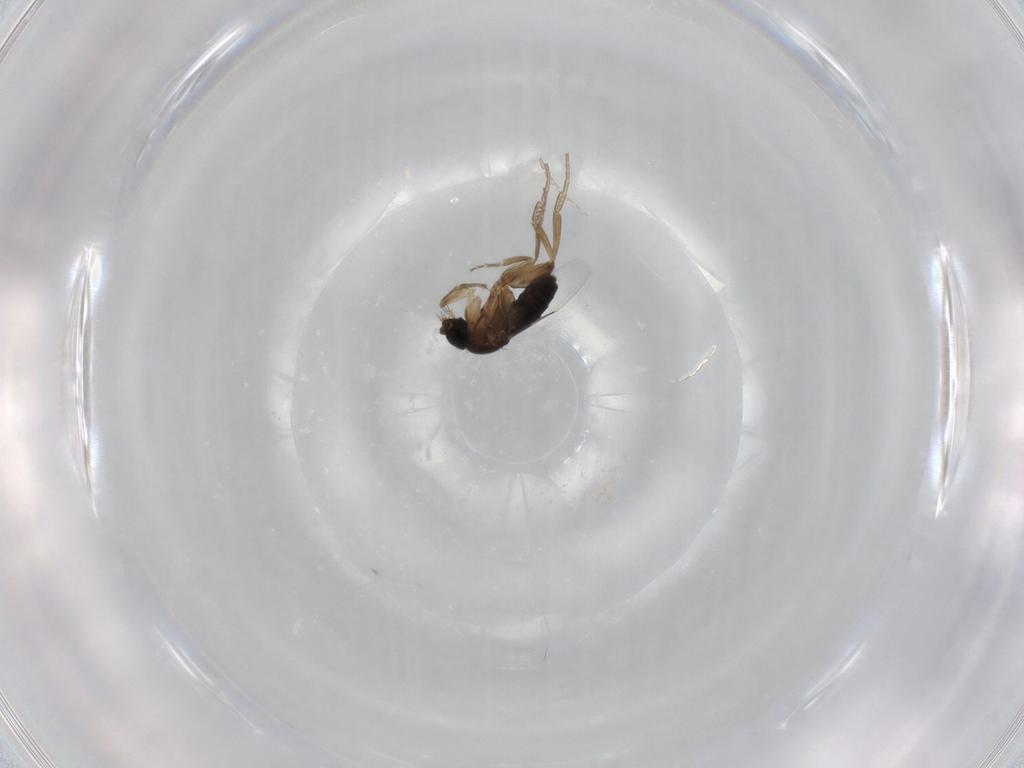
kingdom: Animalia
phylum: Arthropoda
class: Insecta
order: Diptera
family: Phoridae
